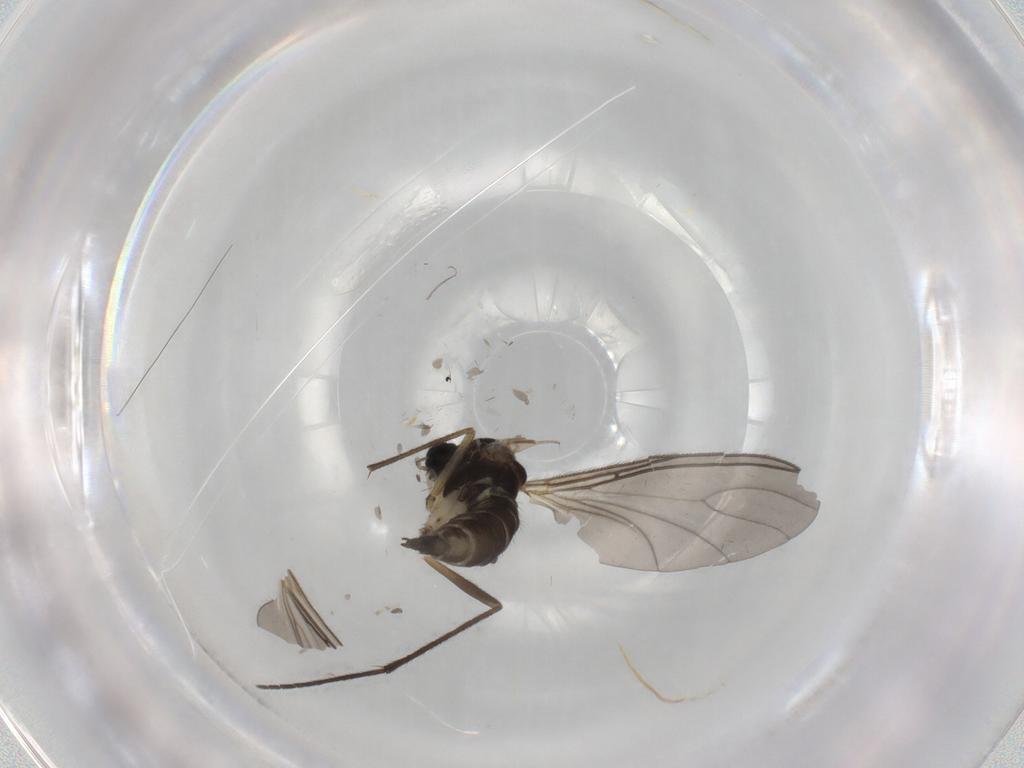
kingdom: Animalia
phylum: Arthropoda
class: Insecta
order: Diptera
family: Sciaridae
